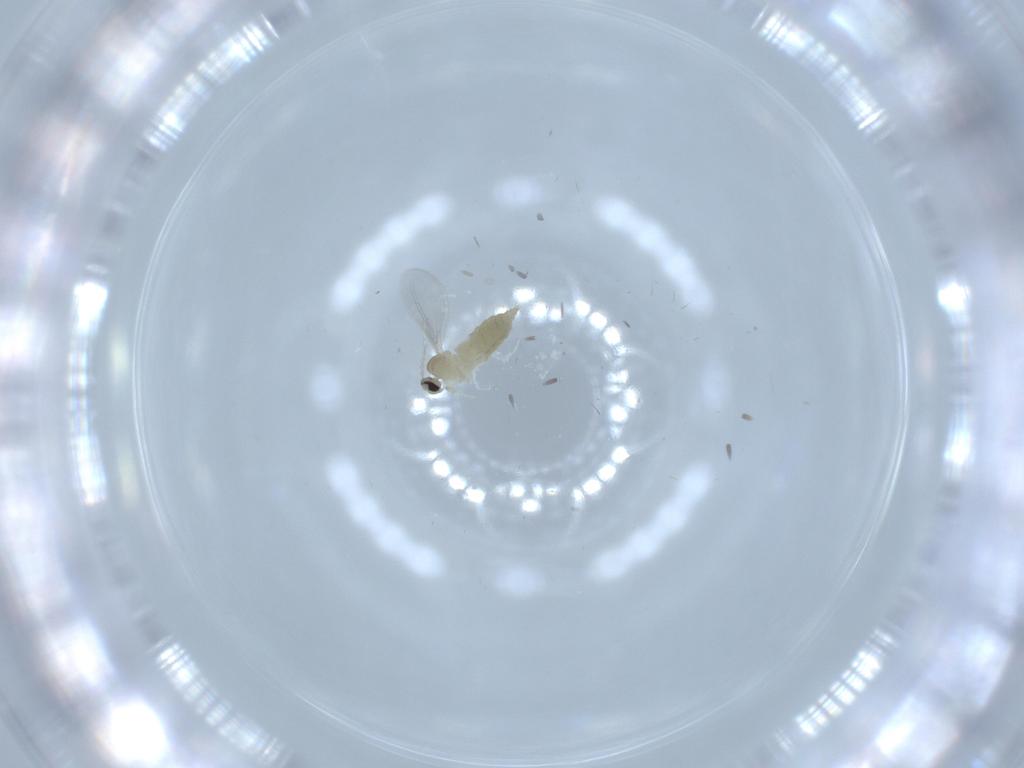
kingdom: Animalia
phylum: Arthropoda
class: Insecta
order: Diptera
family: Cecidomyiidae
